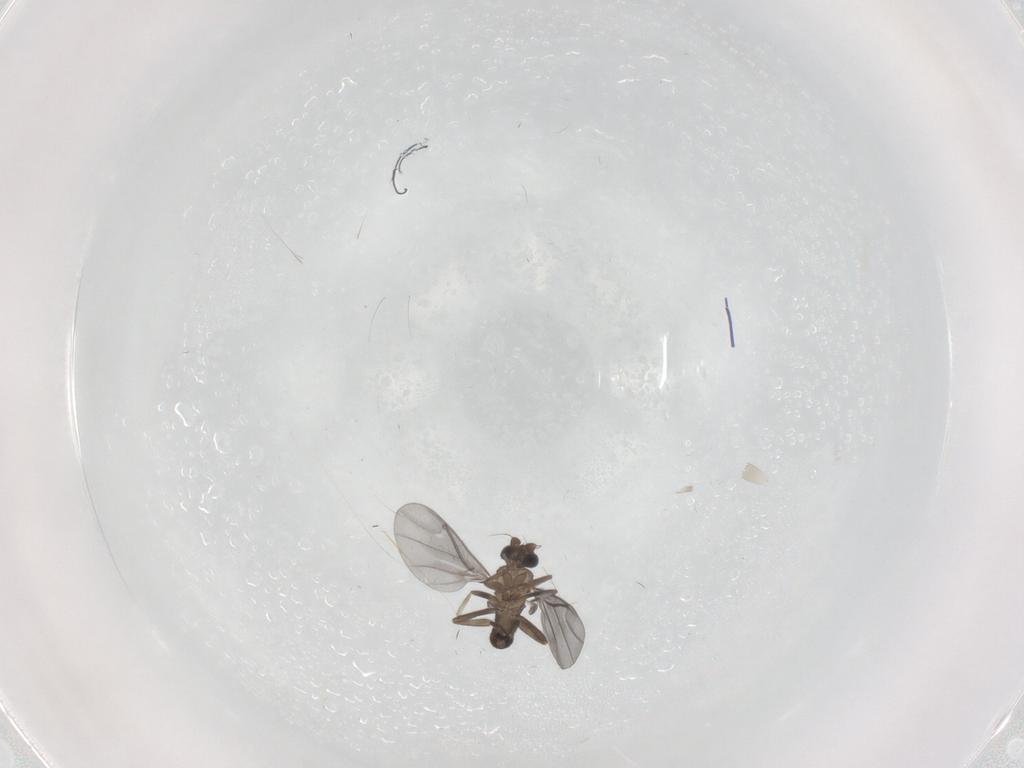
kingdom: Animalia
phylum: Arthropoda
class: Insecta
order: Diptera
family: Phoridae
